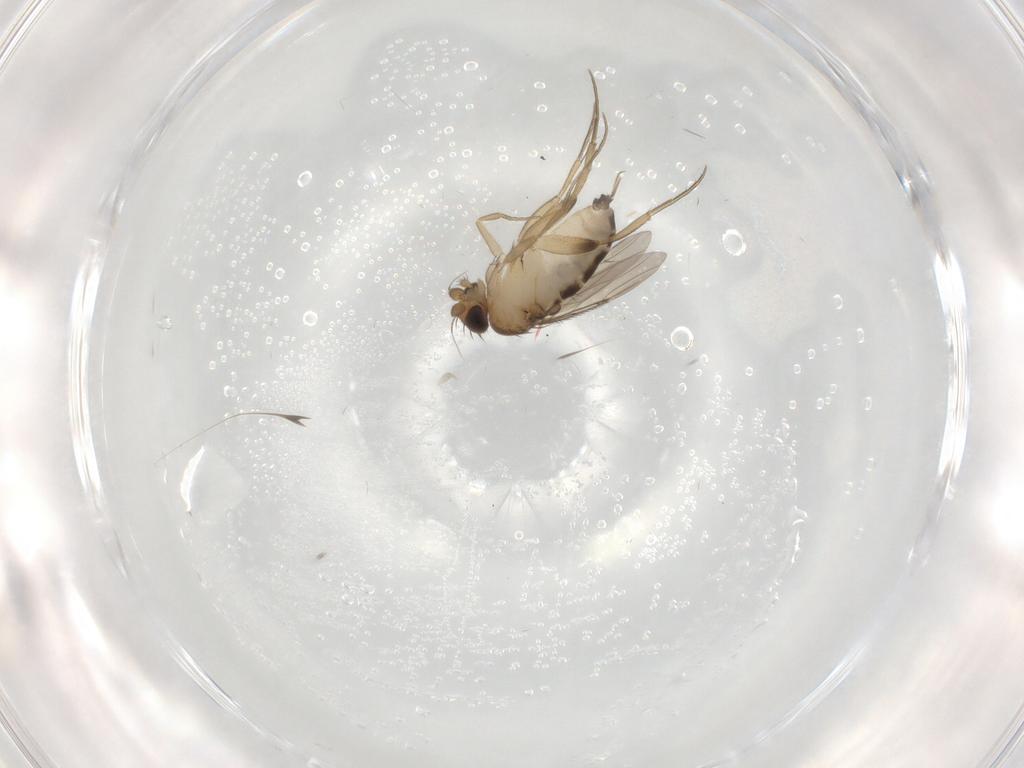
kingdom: Animalia
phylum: Arthropoda
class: Insecta
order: Diptera
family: Phoridae
